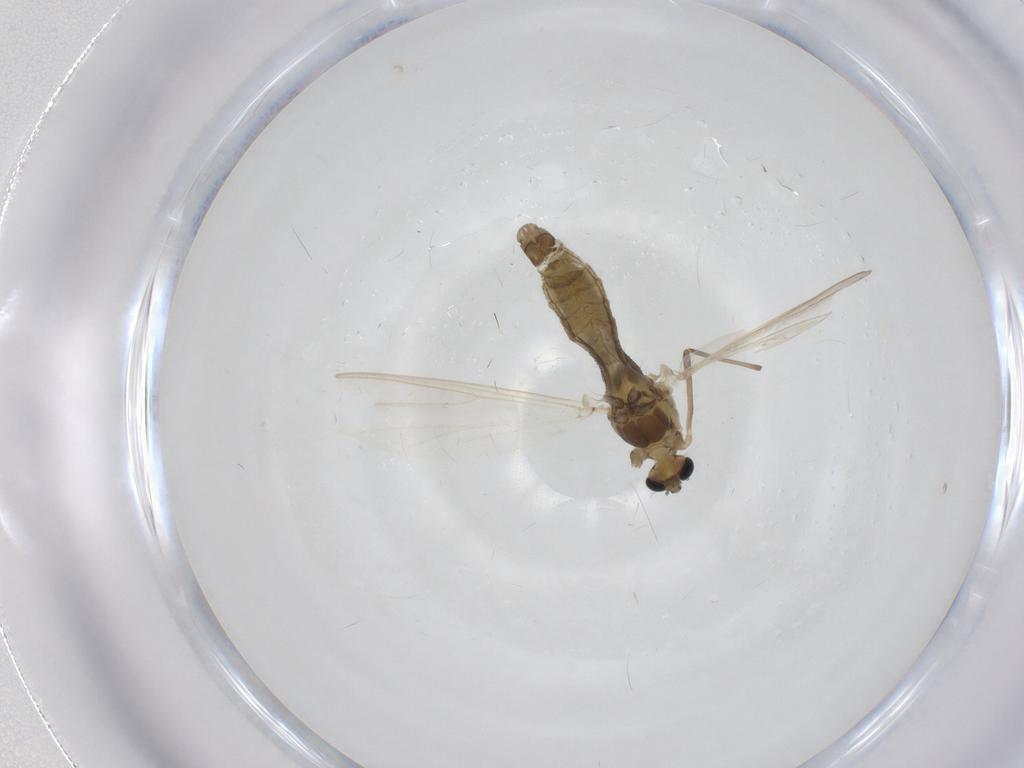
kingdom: Animalia
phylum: Arthropoda
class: Insecta
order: Diptera
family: Chironomidae
